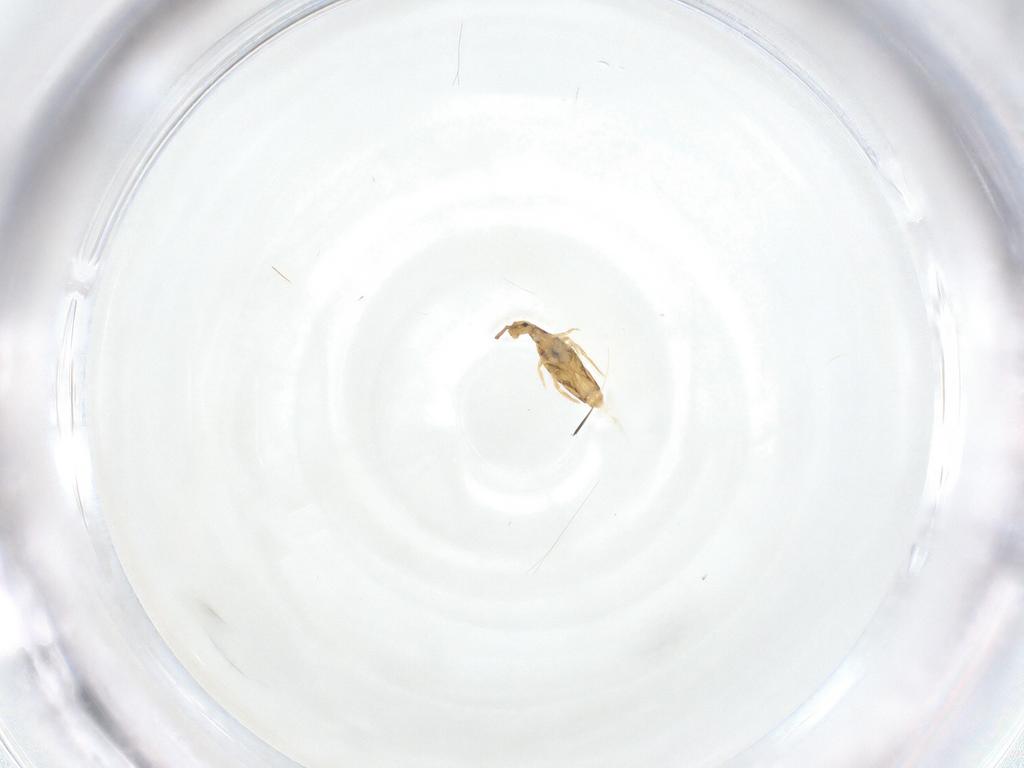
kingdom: Animalia
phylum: Arthropoda
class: Collembola
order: Entomobryomorpha
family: Entomobryidae
